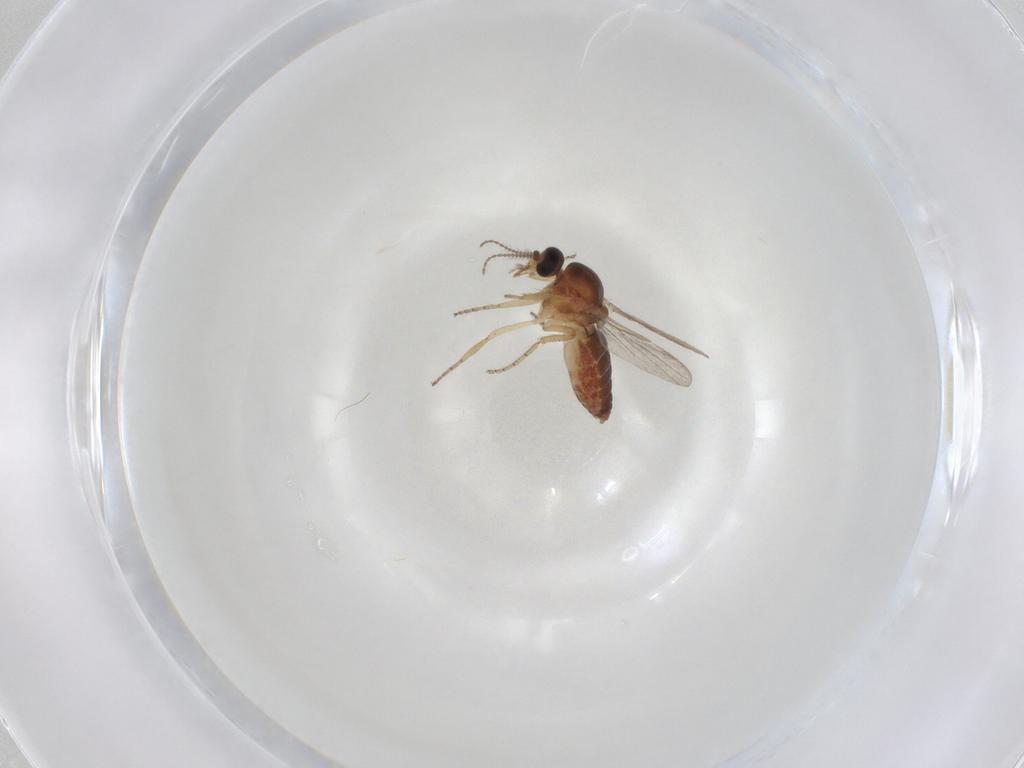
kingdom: Animalia
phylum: Arthropoda
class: Insecta
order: Diptera
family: Ceratopogonidae
